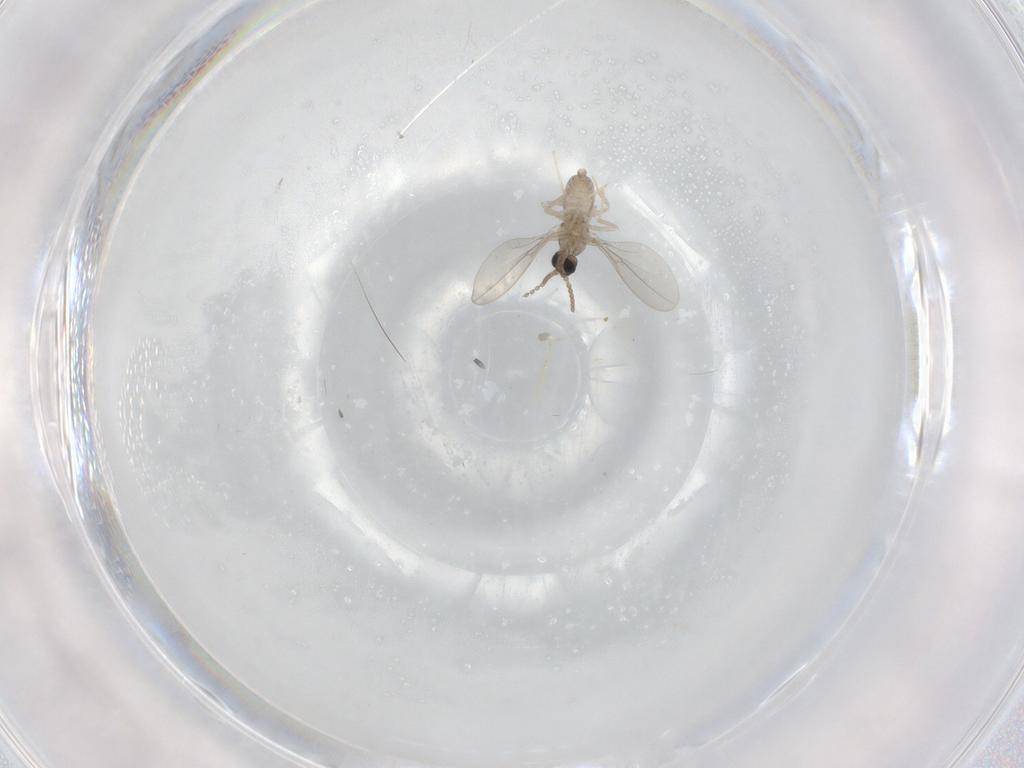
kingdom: Animalia
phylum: Arthropoda
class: Insecta
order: Diptera
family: Cecidomyiidae
